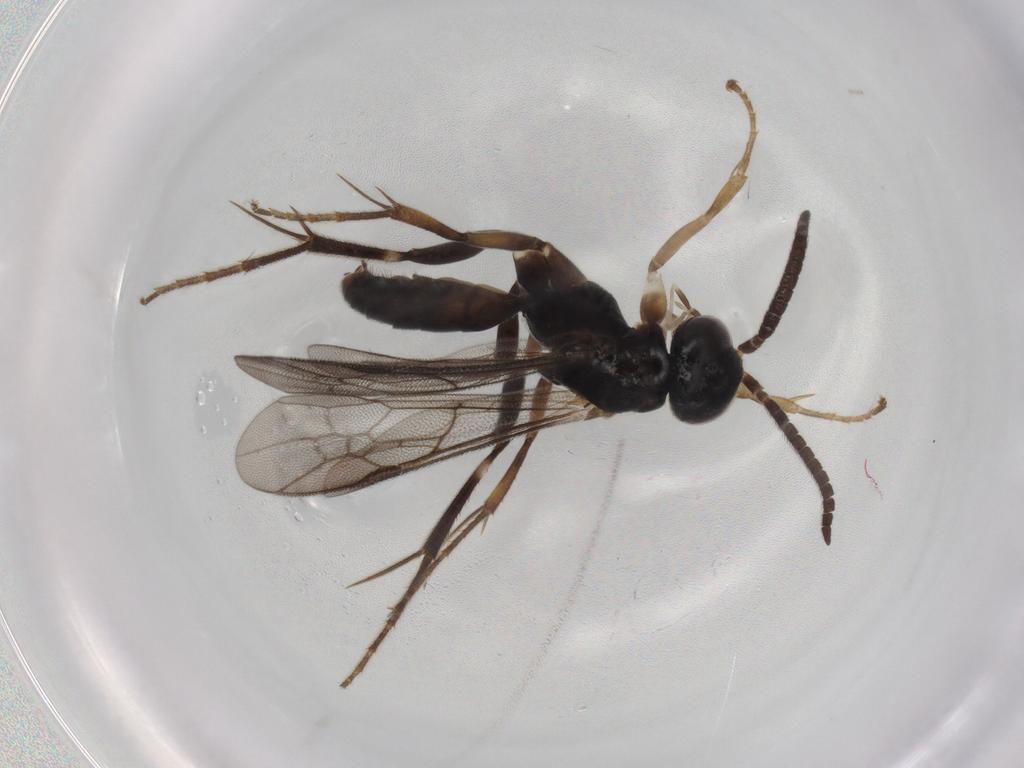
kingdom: Animalia
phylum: Arthropoda
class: Insecta
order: Hymenoptera
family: Pompilidae
